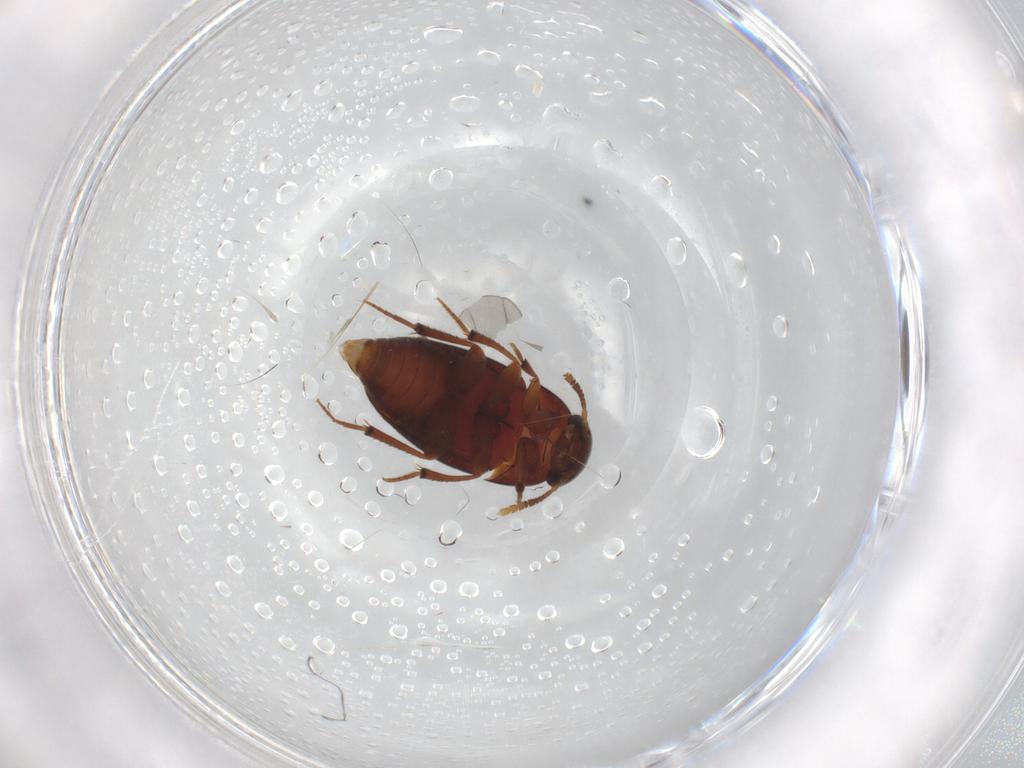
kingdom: Animalia
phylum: Arthropoda
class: Insecta
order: Coleoptera
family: Leiodidae
